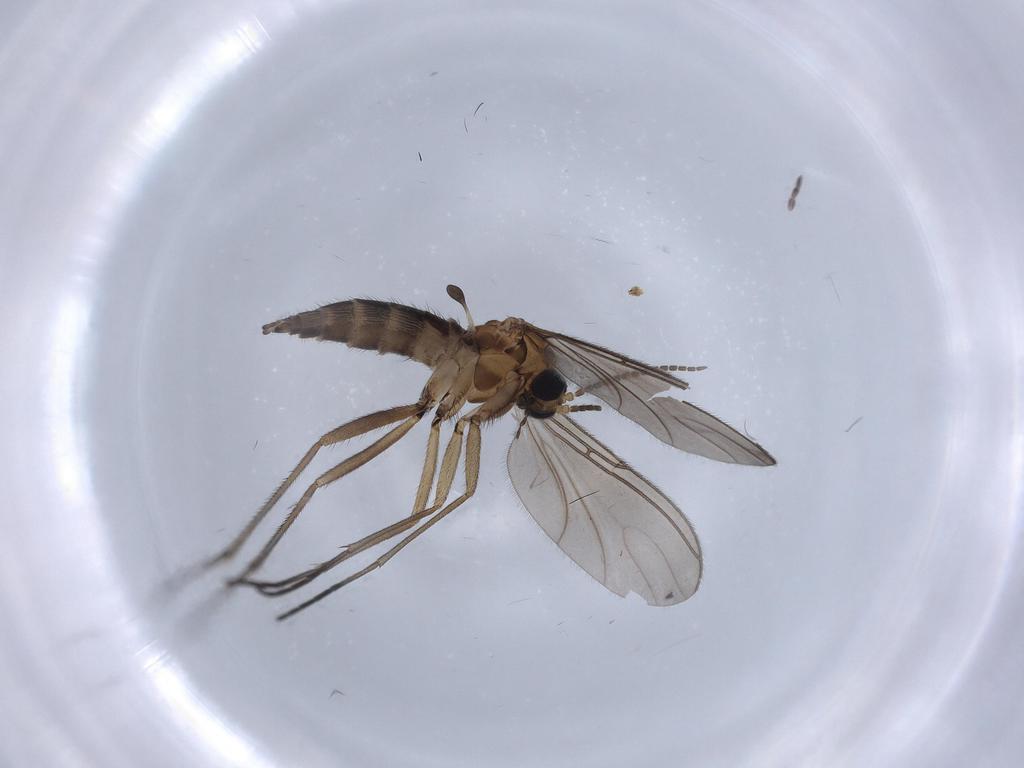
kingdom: Animalia
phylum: Arthropoda
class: Insecta
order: Diptera
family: Sciaridae
